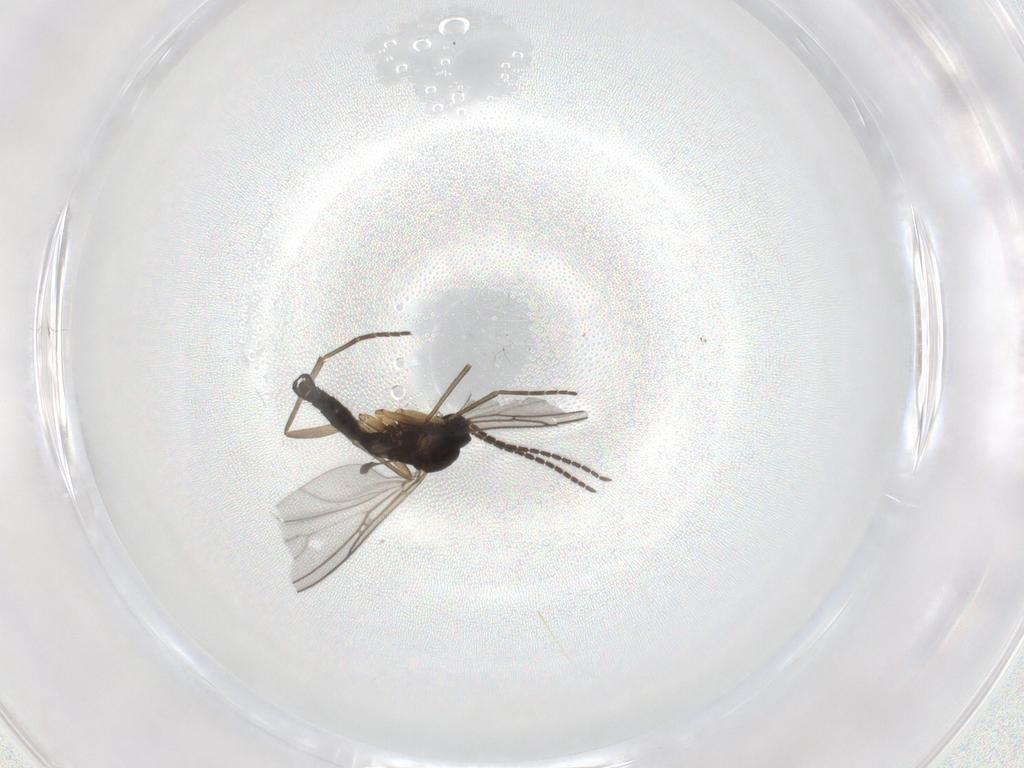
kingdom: Animalia
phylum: Arthropoda
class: Insecta
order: Diptera
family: Sciaridae
